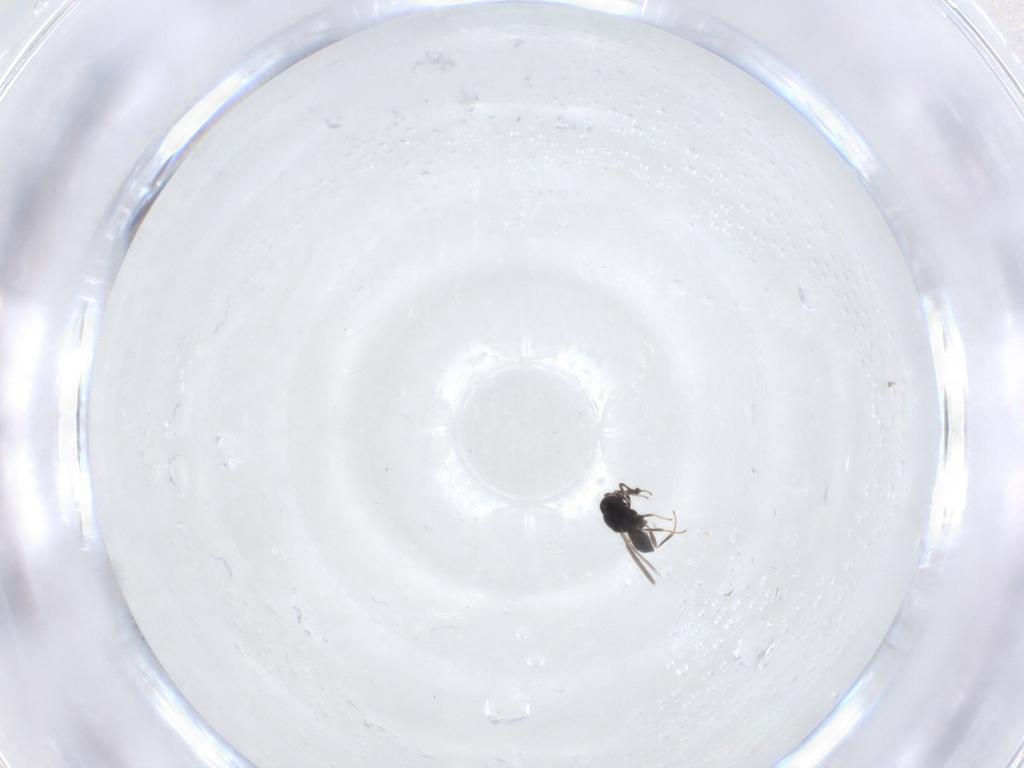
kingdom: Animalia
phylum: Arthropoda
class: Insecta
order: Hymenoptera
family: Scelionidae
